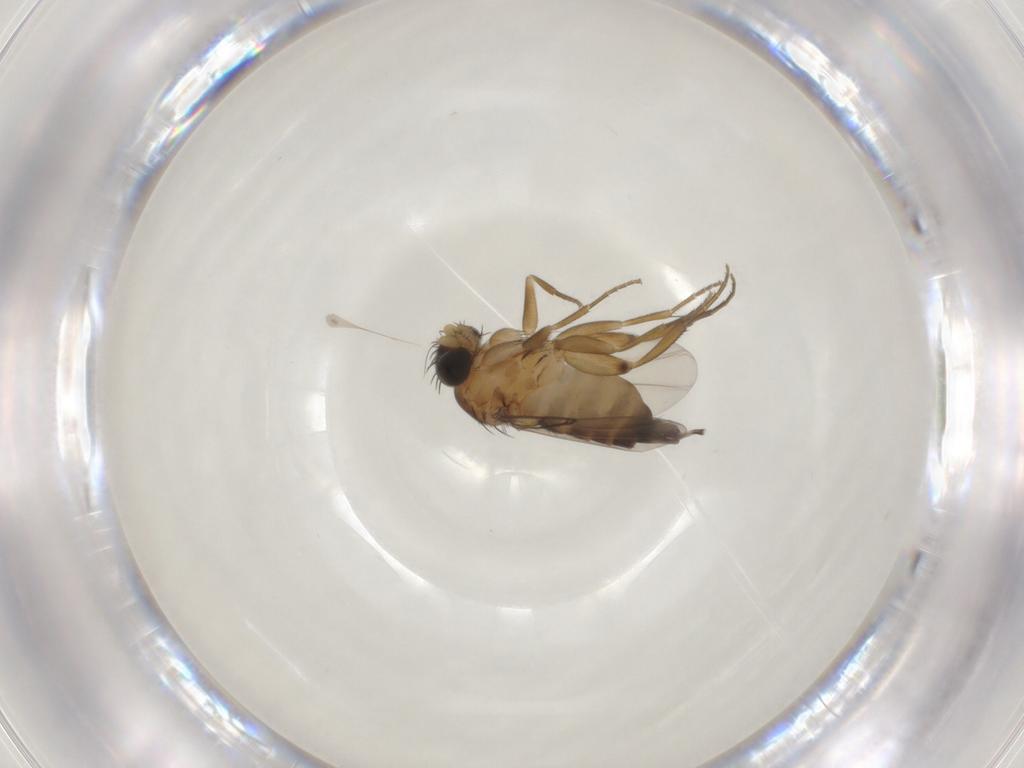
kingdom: Animalia
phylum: Arthropoda
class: Insecta
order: Diptera
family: Phoridae
